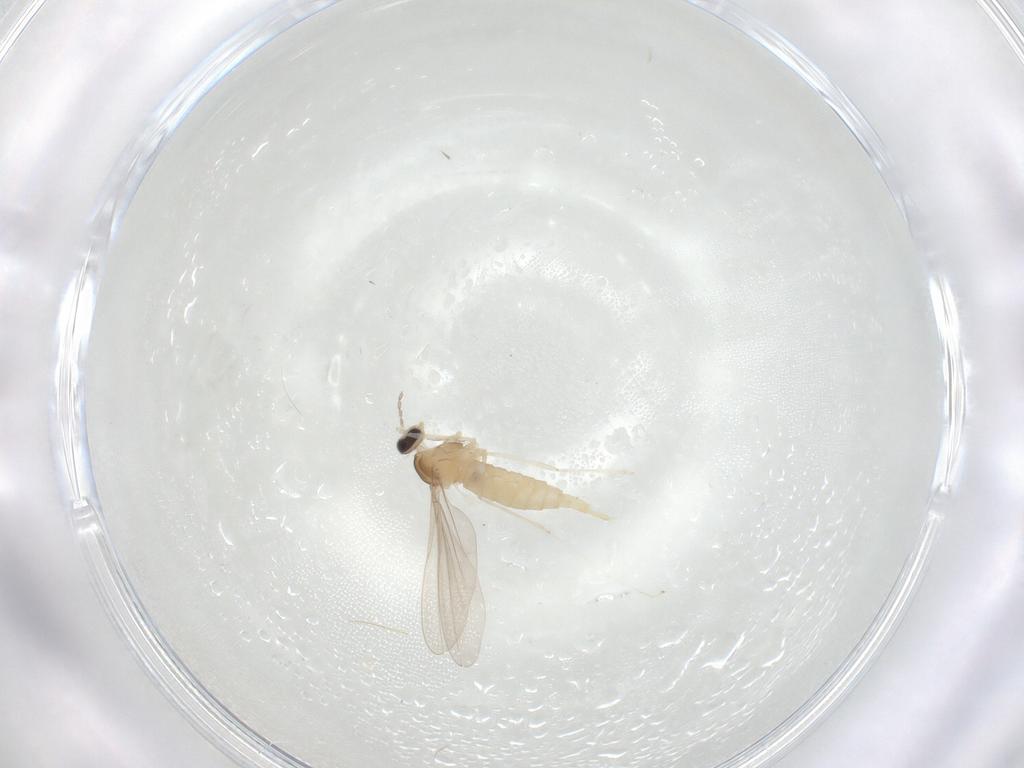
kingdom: Animalia
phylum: Arthropoda
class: Insecta
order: Diptera
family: Cecidomyiidae
